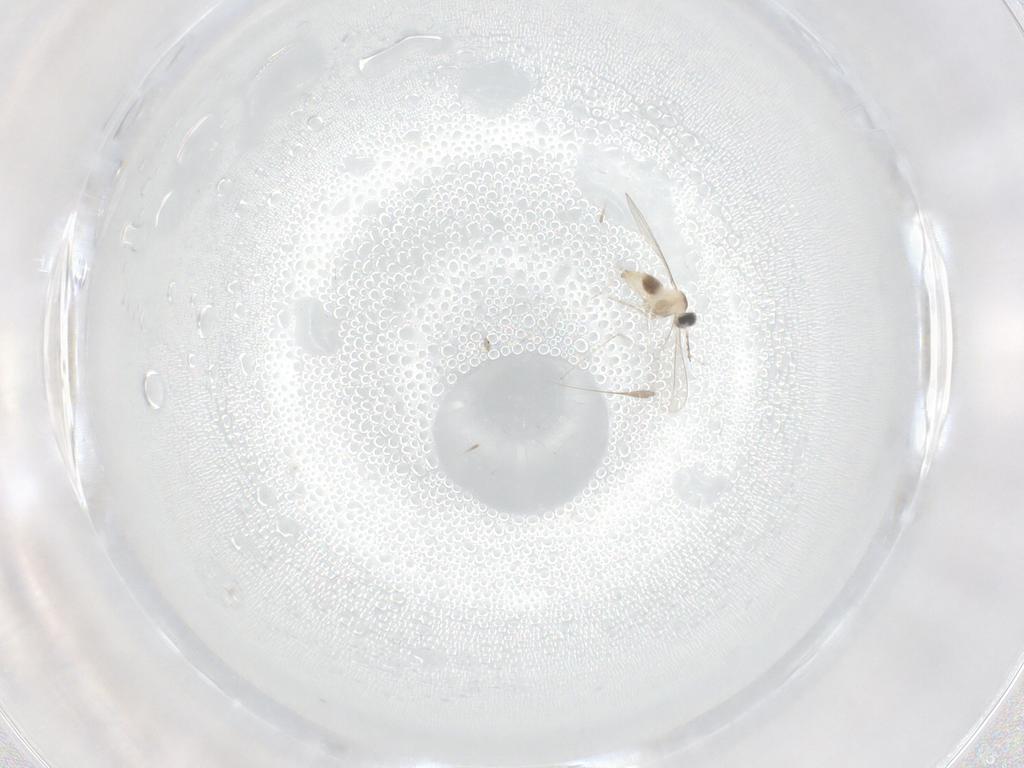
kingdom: Animalia
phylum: Arthropoda
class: Insecta
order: Diptera
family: Cecidomyiidae
